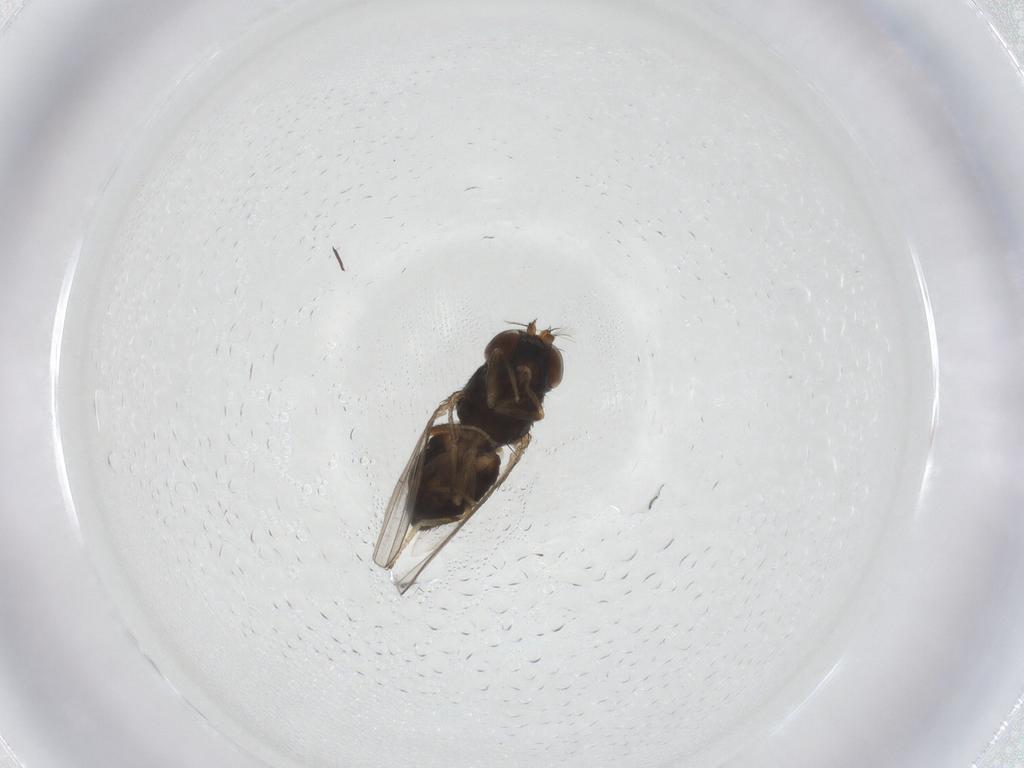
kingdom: Animalia
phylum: Arthropoda
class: Insecta
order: Diptera
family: Ephydridae
